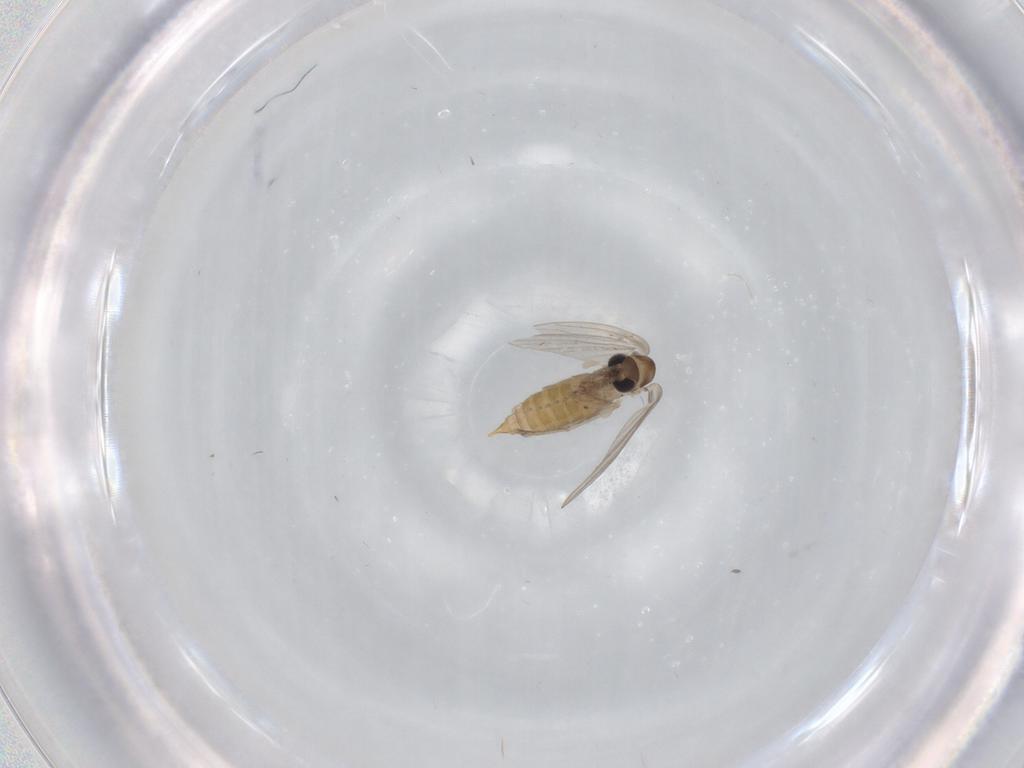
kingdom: Animalia
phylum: Arthropoda
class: Insecta
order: Diptera
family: Psychodidae
